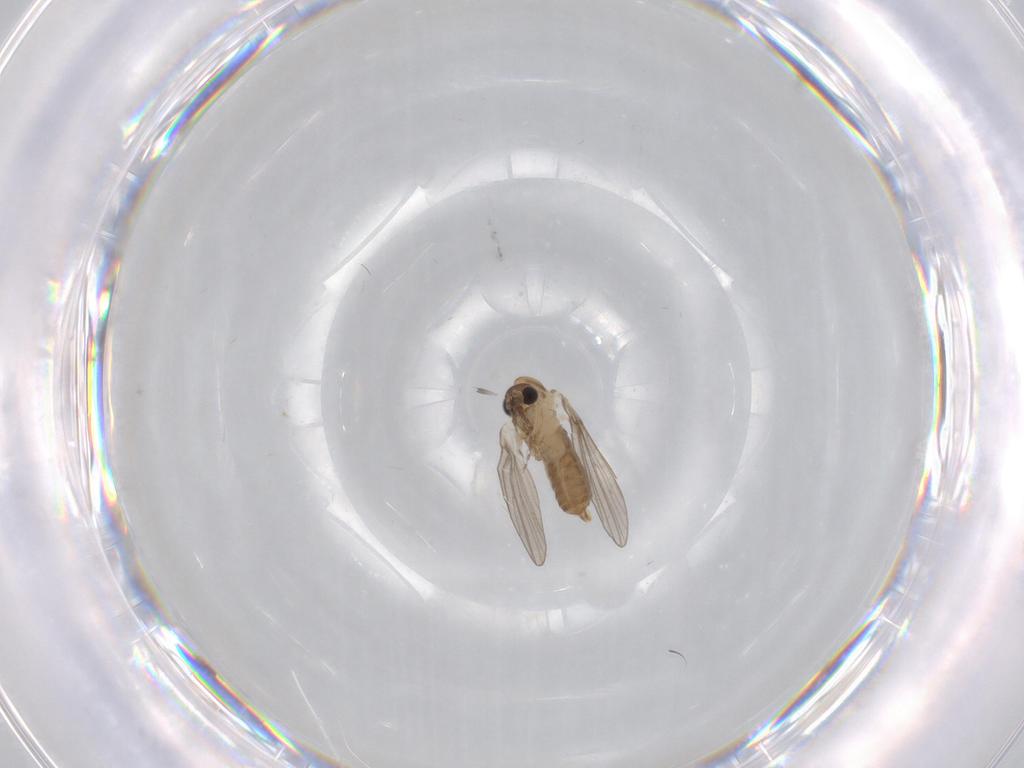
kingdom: Animalia
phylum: Arthropoda
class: Insecta
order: Diptera
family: Psychodidae
